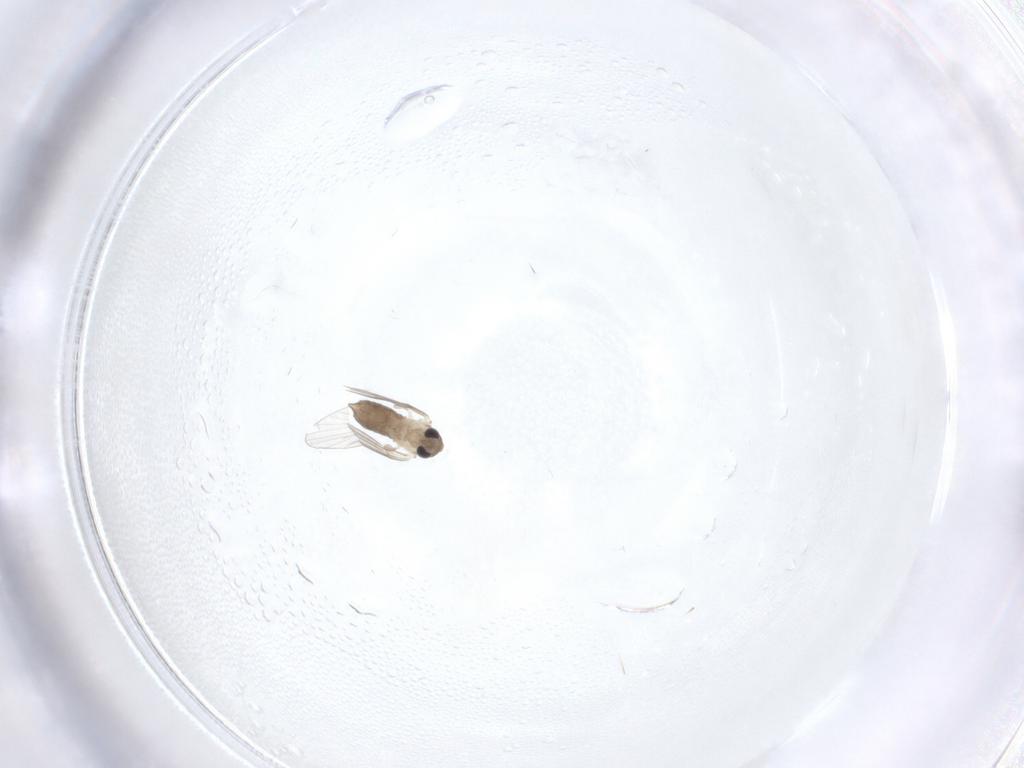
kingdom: Animalia
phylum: Arthropoda
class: Insecta
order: Diptera
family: Psychodidae
